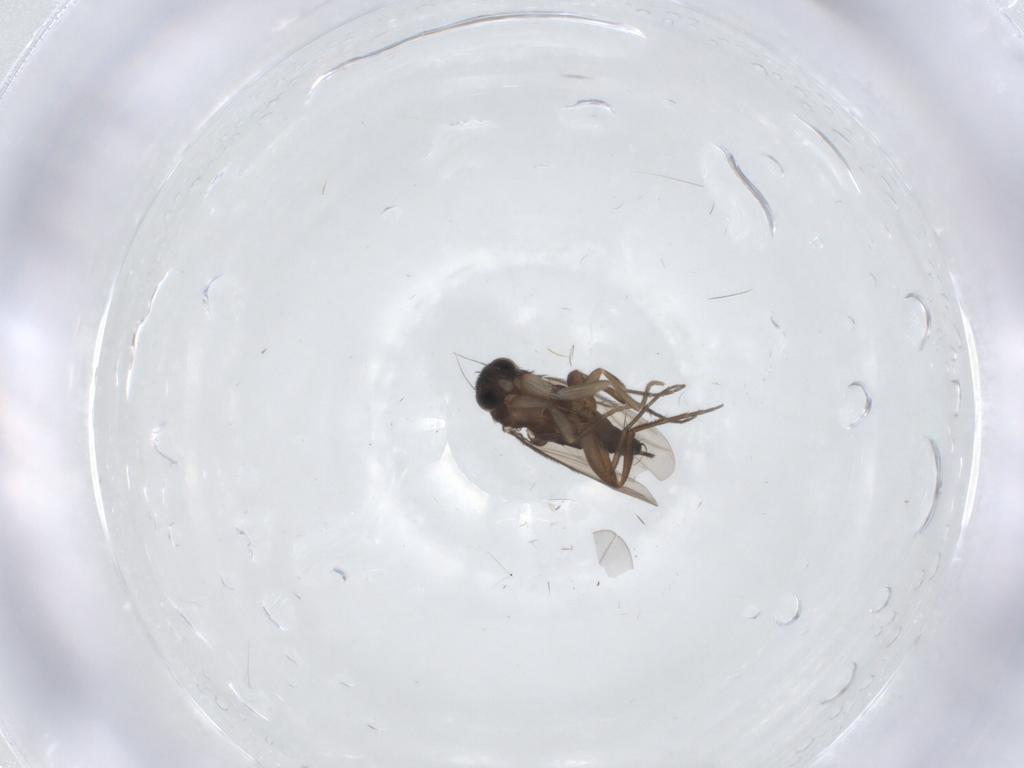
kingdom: Animalia
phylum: Arthropoda
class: Insecta
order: Diptera
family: Phoridae
